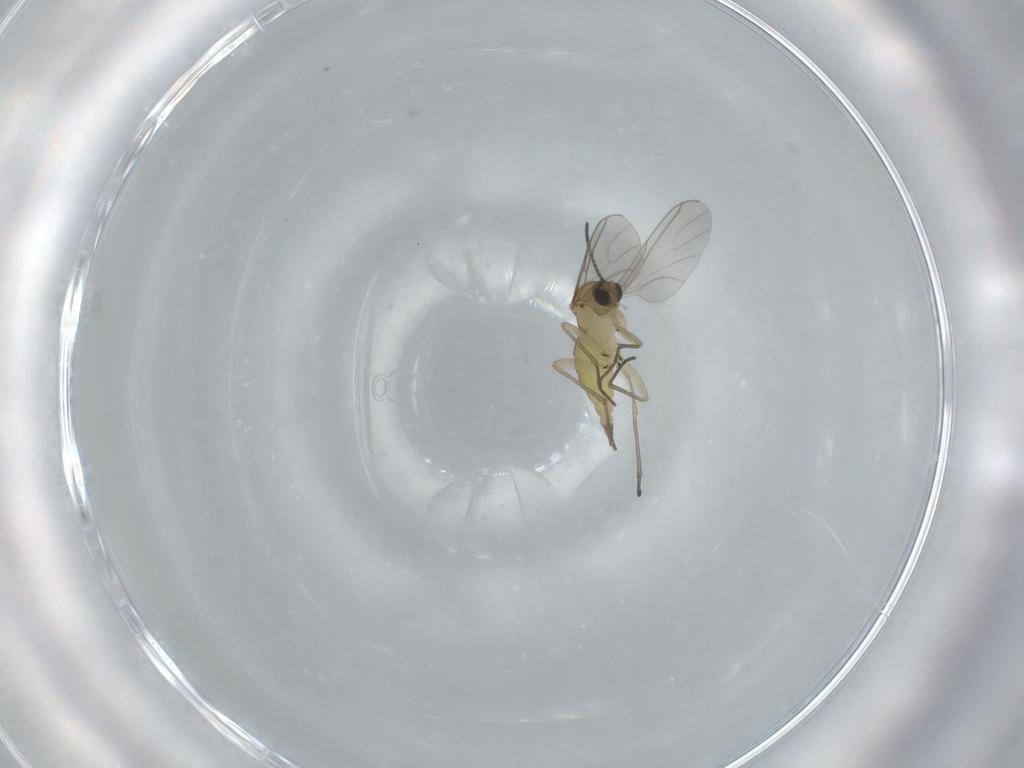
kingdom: Animalia
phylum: Arthropoda
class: Insecta
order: Diptera
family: Sciaridae
